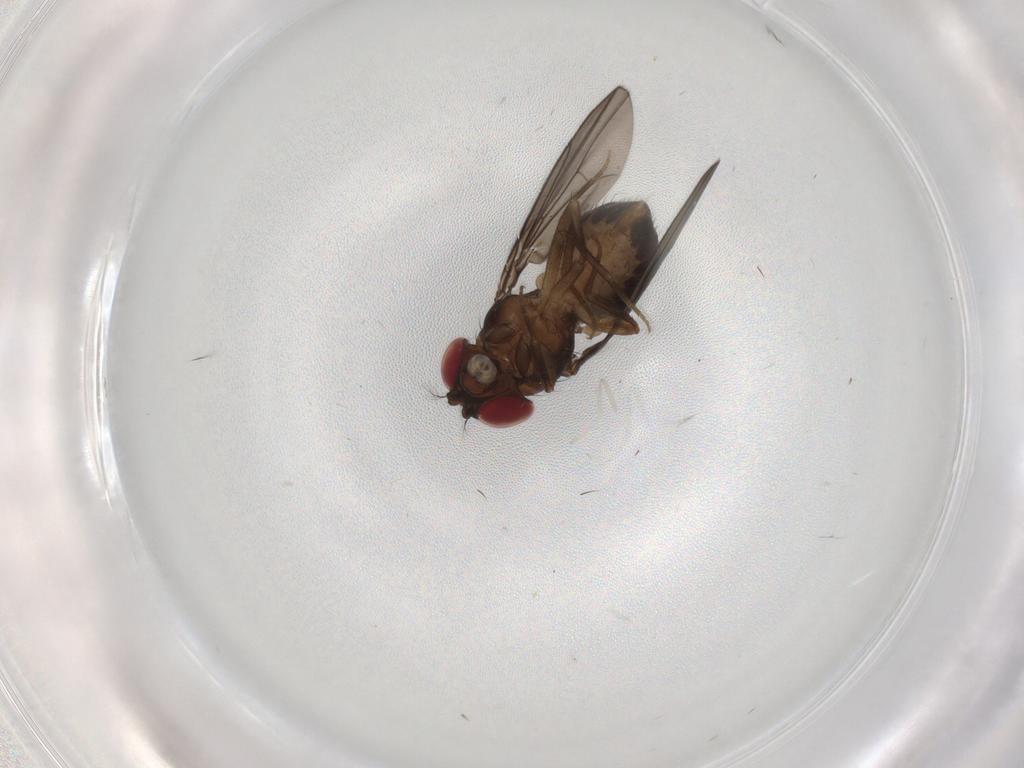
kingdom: Animalia
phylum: Arthropoda
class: Insecta
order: Diptera
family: Drosophilidae
